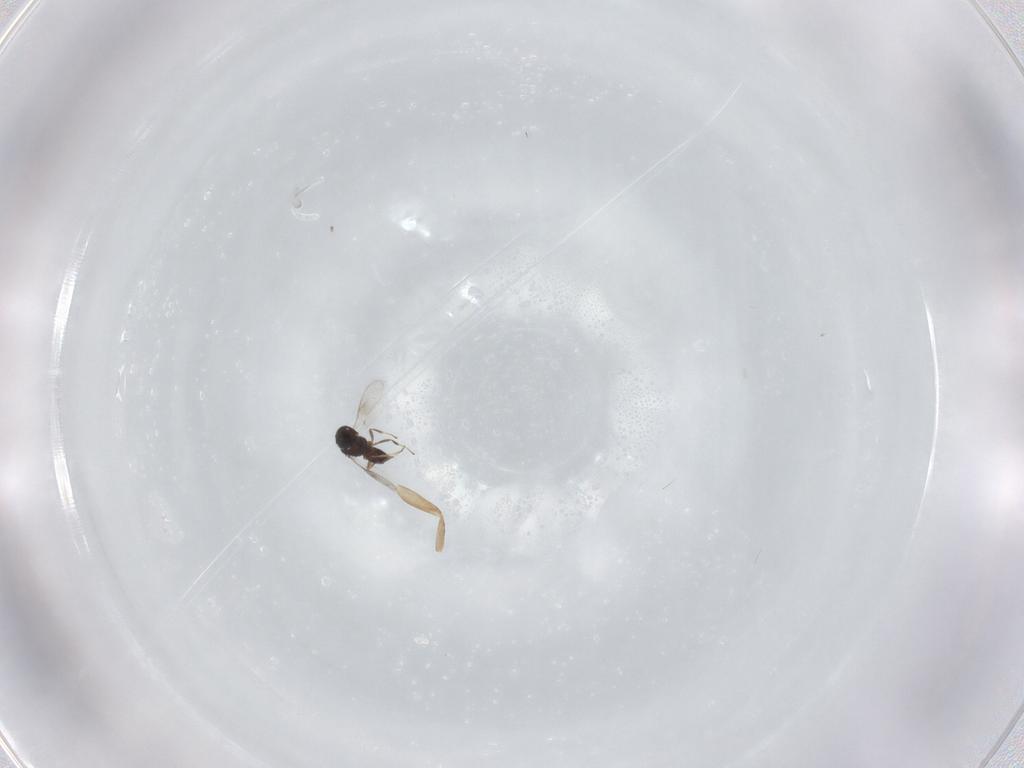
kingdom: Animalia
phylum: Arthropoda
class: Insecta
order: Hymenoptera
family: Scelionidae
